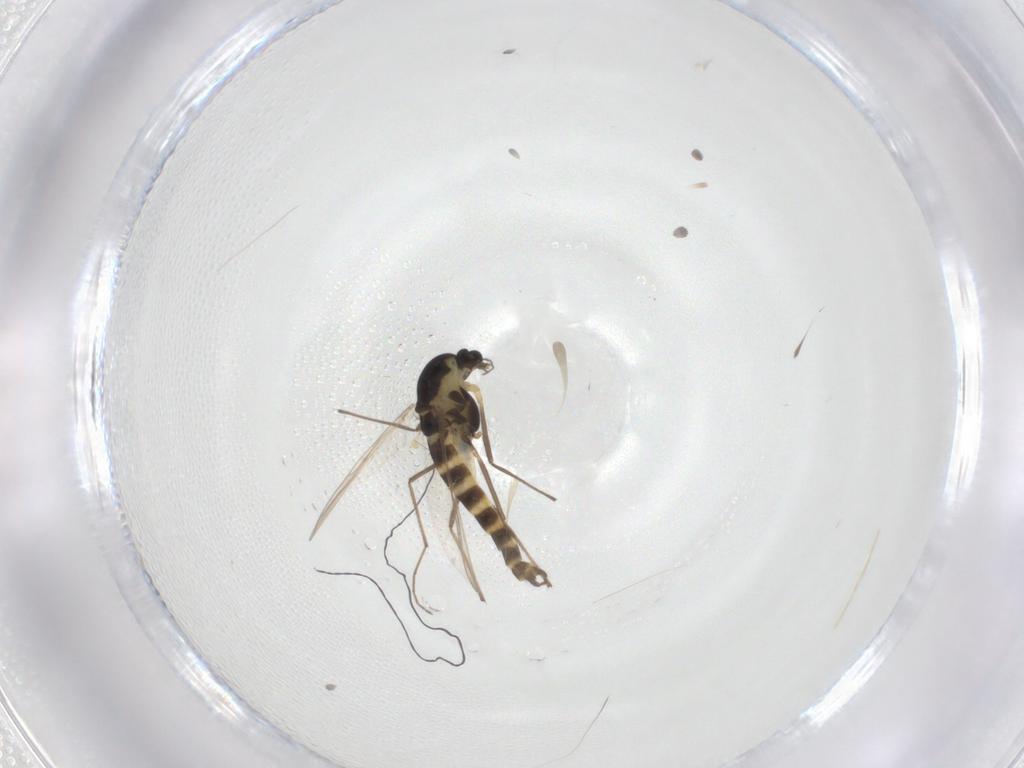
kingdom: Animalia
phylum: Arthropoda
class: Insecta
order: Diptera
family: Chironomidae
